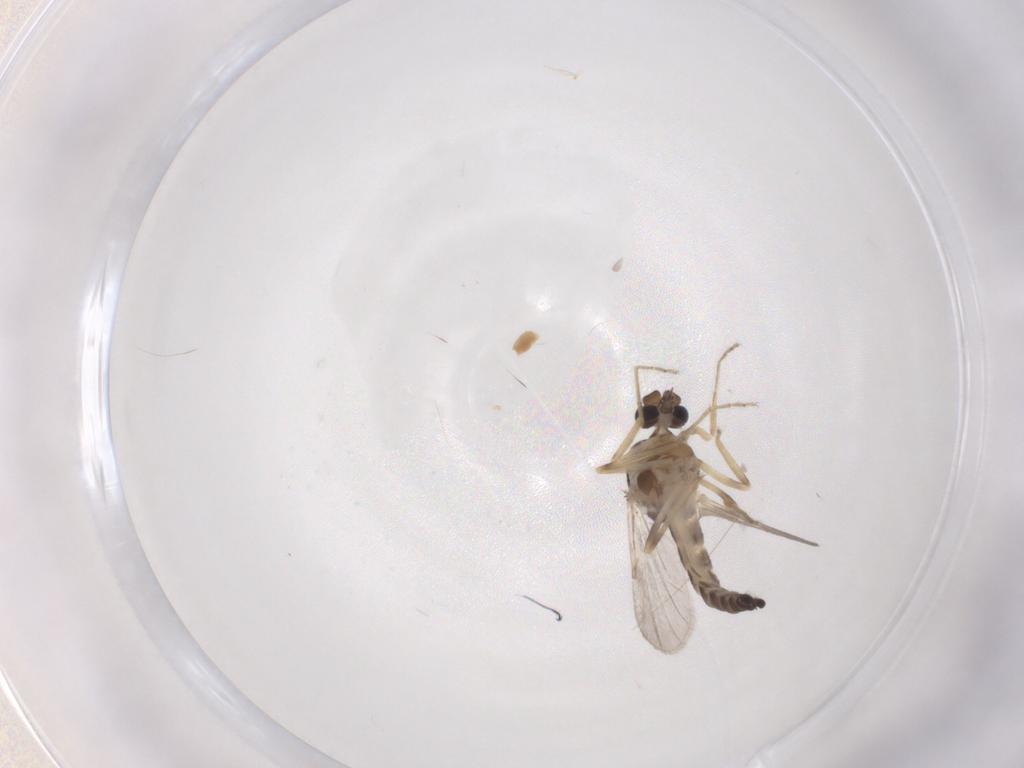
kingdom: Animalia
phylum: Arthropoda
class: Insecta
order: Diptera
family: Ceratopogonidae
